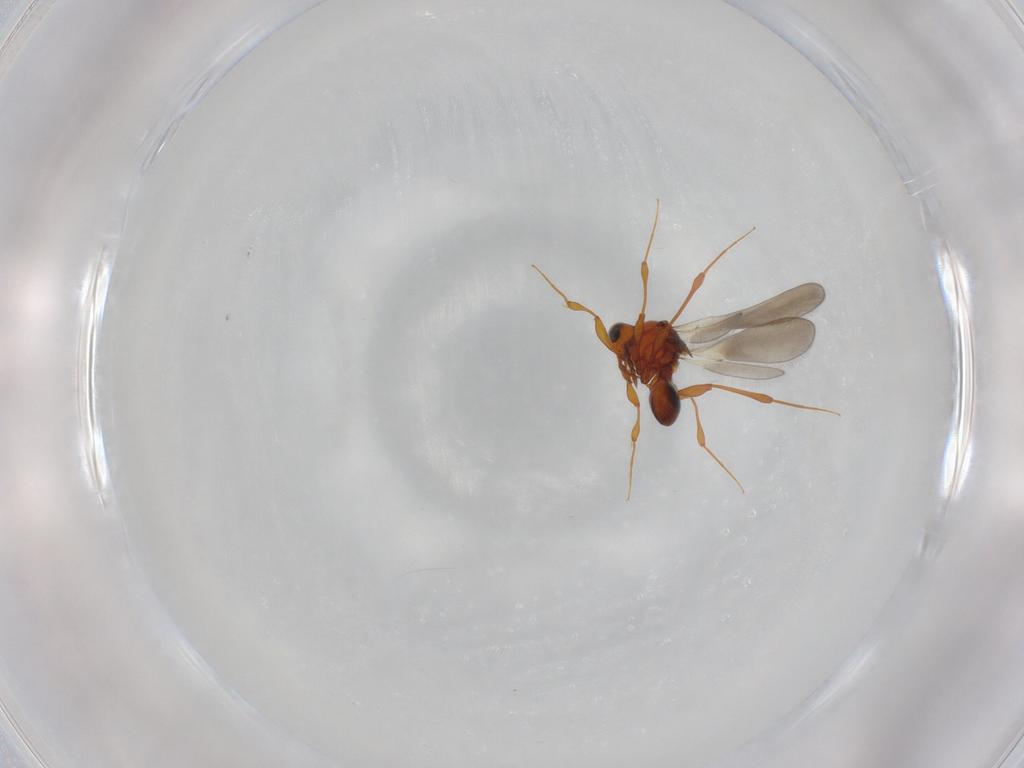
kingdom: Animalia
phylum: Arthropoda
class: Insecta
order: Hymenoptera
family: Platygastridae
